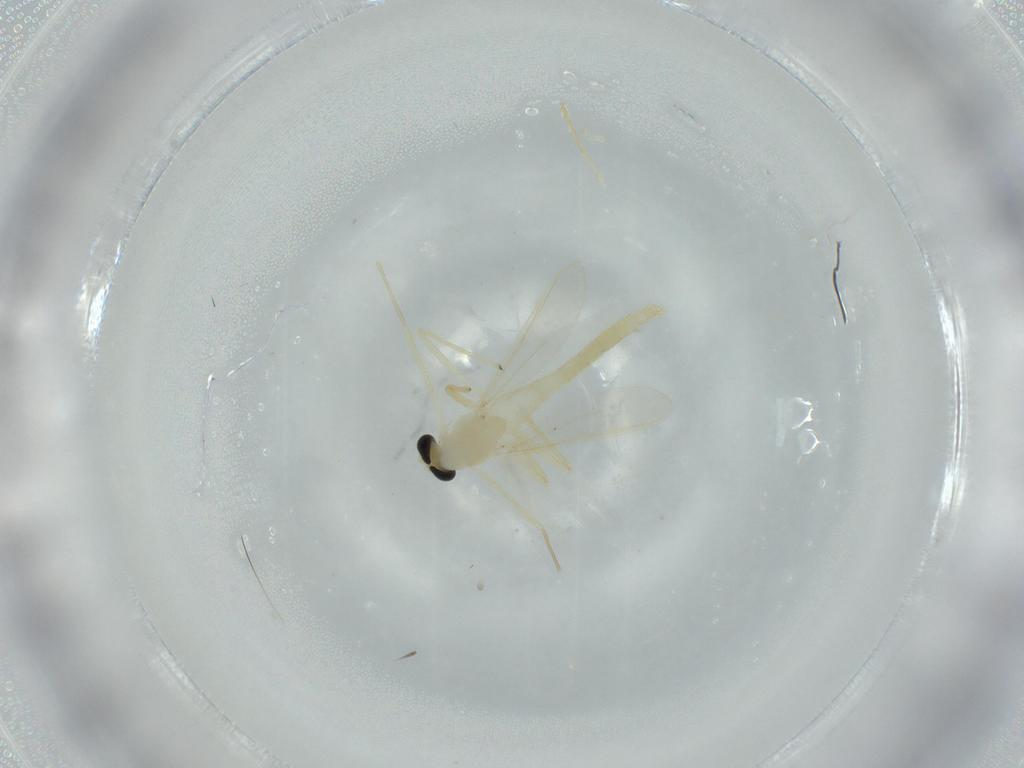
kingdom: Animalia
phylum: Arthropoda
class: Insecta
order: Diptera
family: Chironomidae
